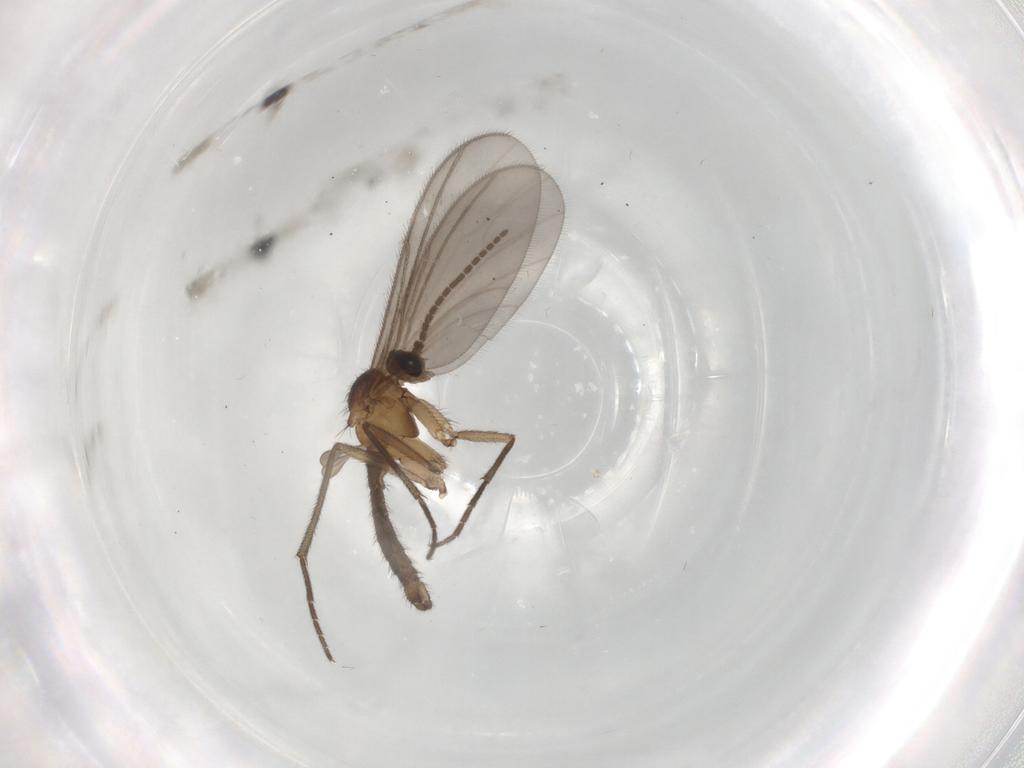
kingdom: Animalia
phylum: Arthropoda
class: Insecta
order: Diptera
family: Sciaridae
